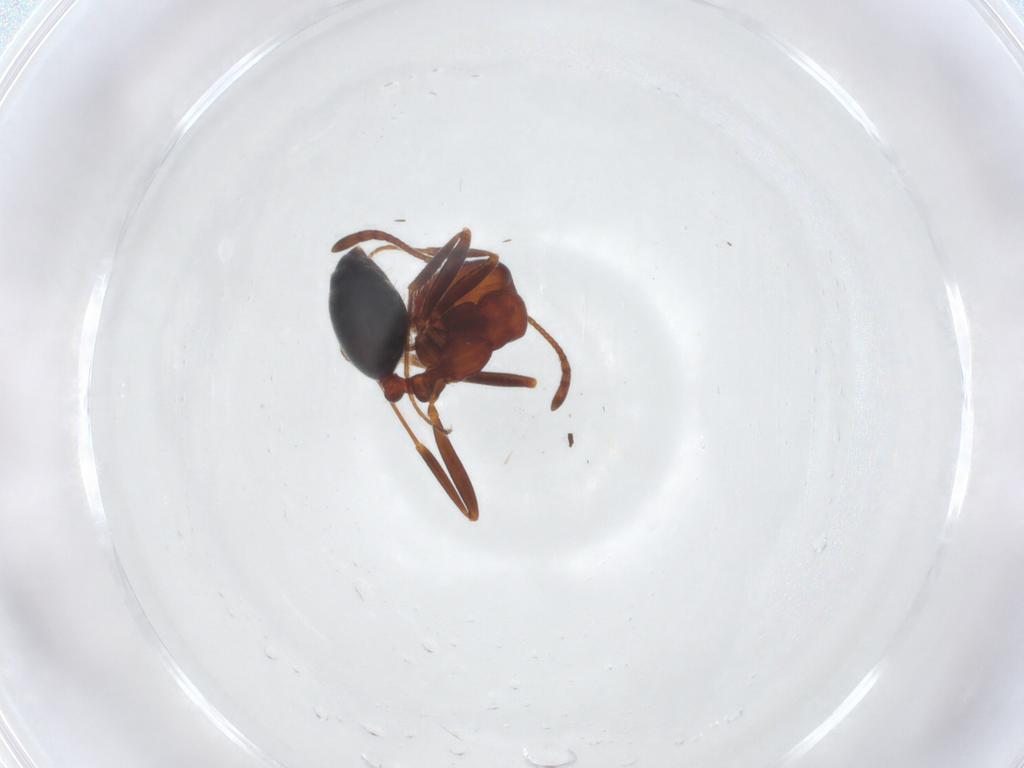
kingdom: Animalia
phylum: Arthropoda
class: Insecta
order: Hymenoptera
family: Formicidae
